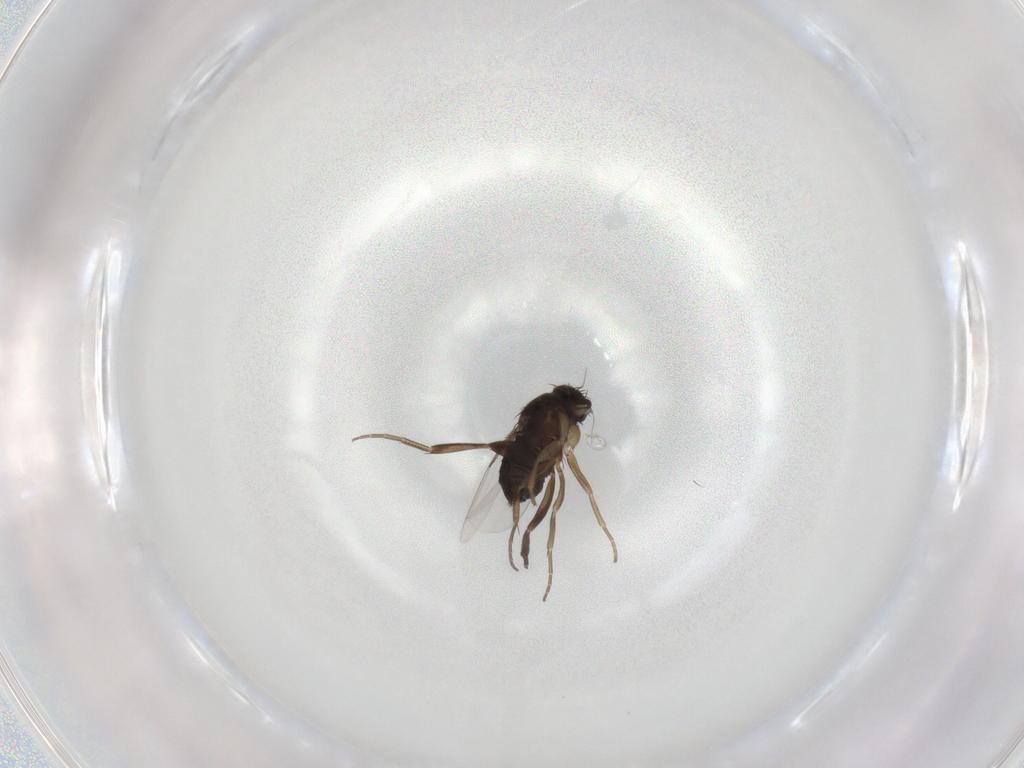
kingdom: Animalia
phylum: Arthropoda
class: Insecta
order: Diptera
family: Phoridae
